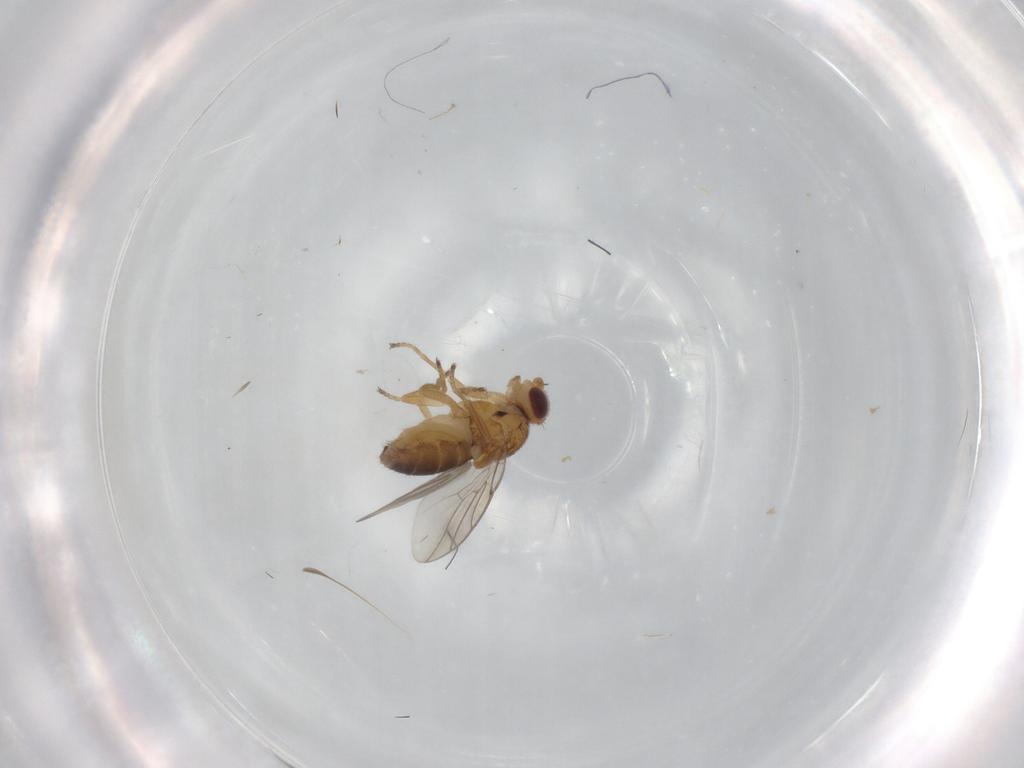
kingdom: Animalia
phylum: Arthropoda
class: Insecta
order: Diptera
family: Chloropidae
